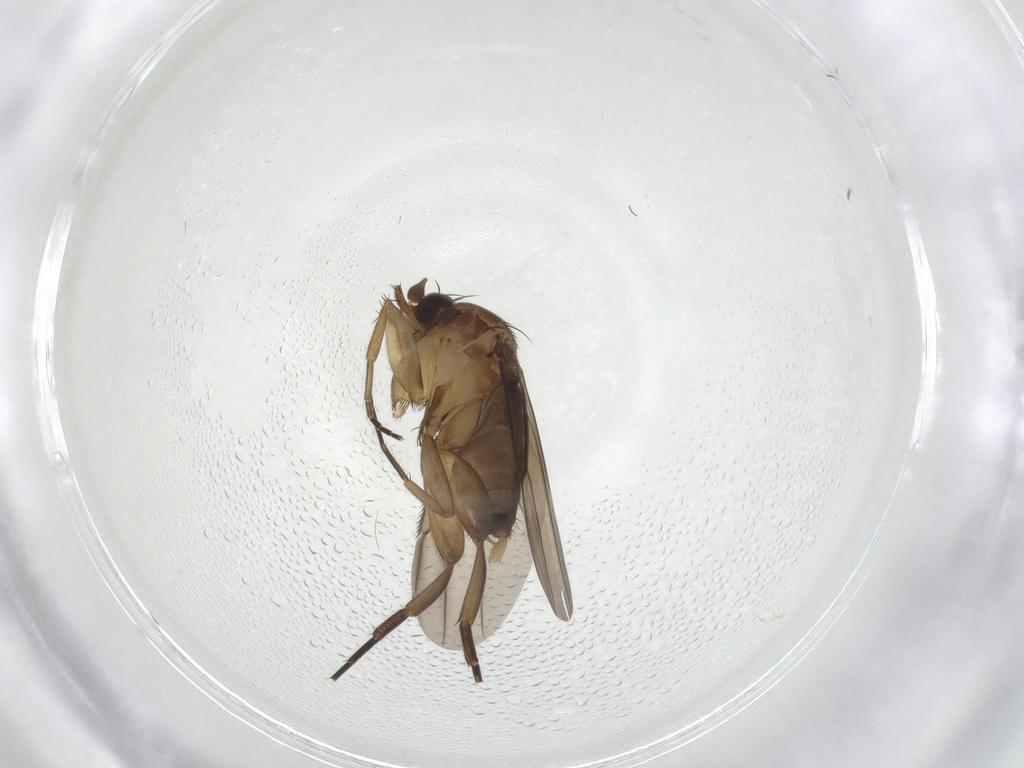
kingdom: Animalia
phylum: Arthropoda
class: Insecta
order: Diptera
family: Phoridae
